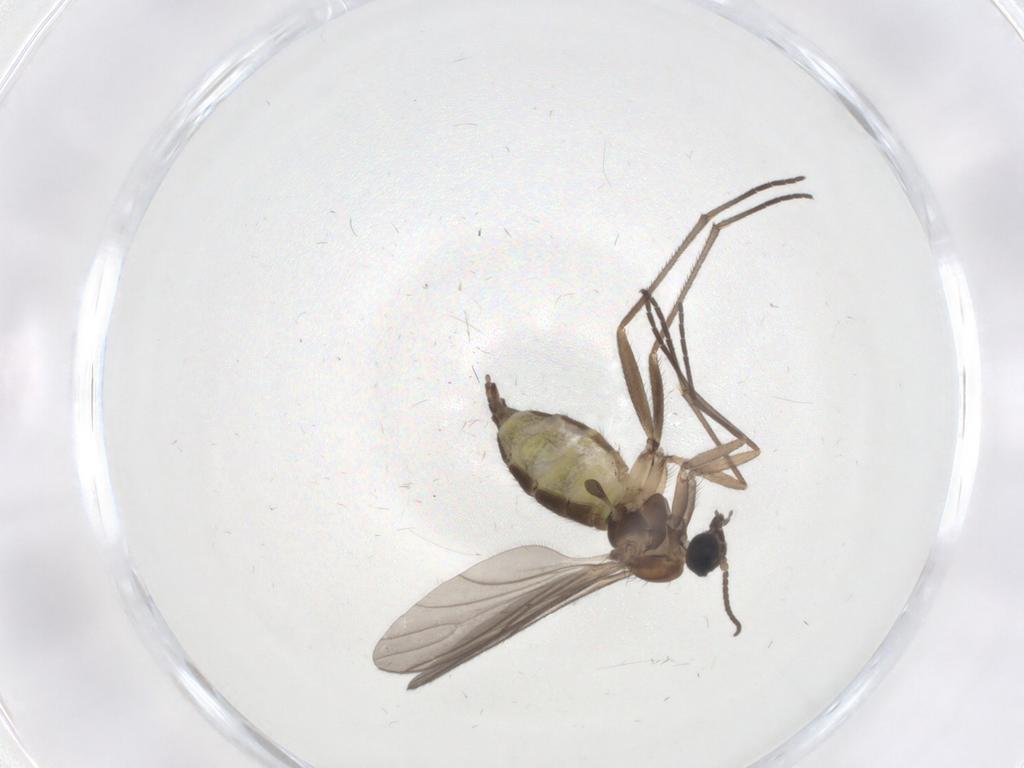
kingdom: Animalia
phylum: Arthropoda
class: Insecta
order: Diptera
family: Sciaridae
